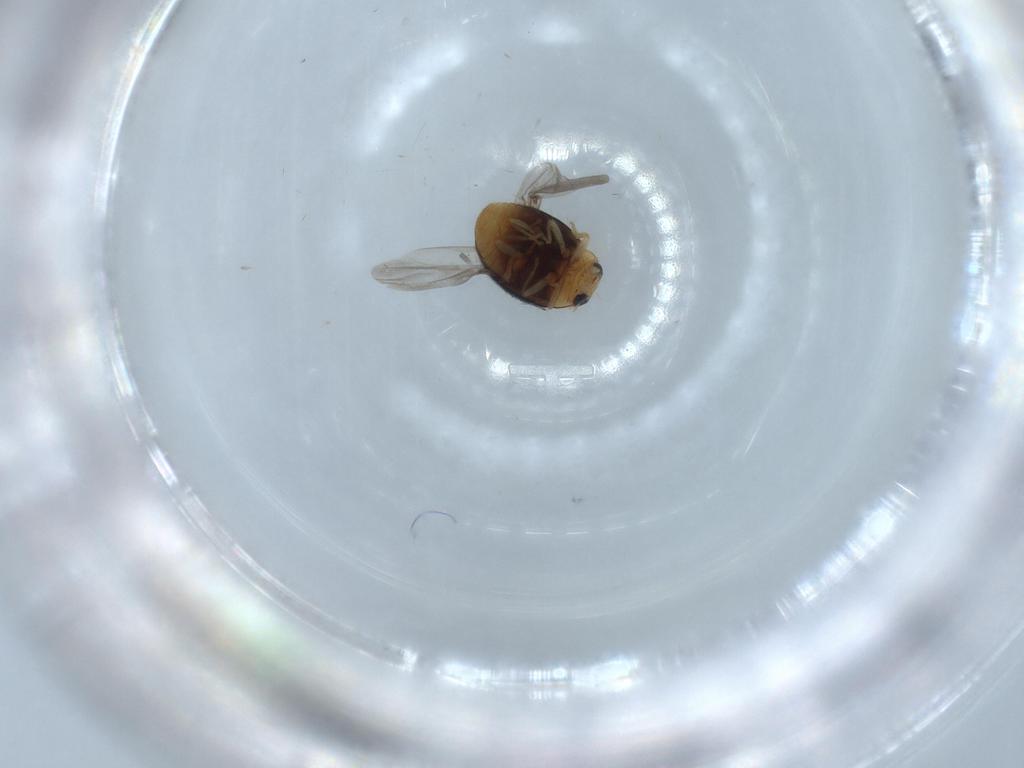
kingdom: Animalia
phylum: Arthropoda
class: Insecta
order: Coleoptera
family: Coccinellidae
